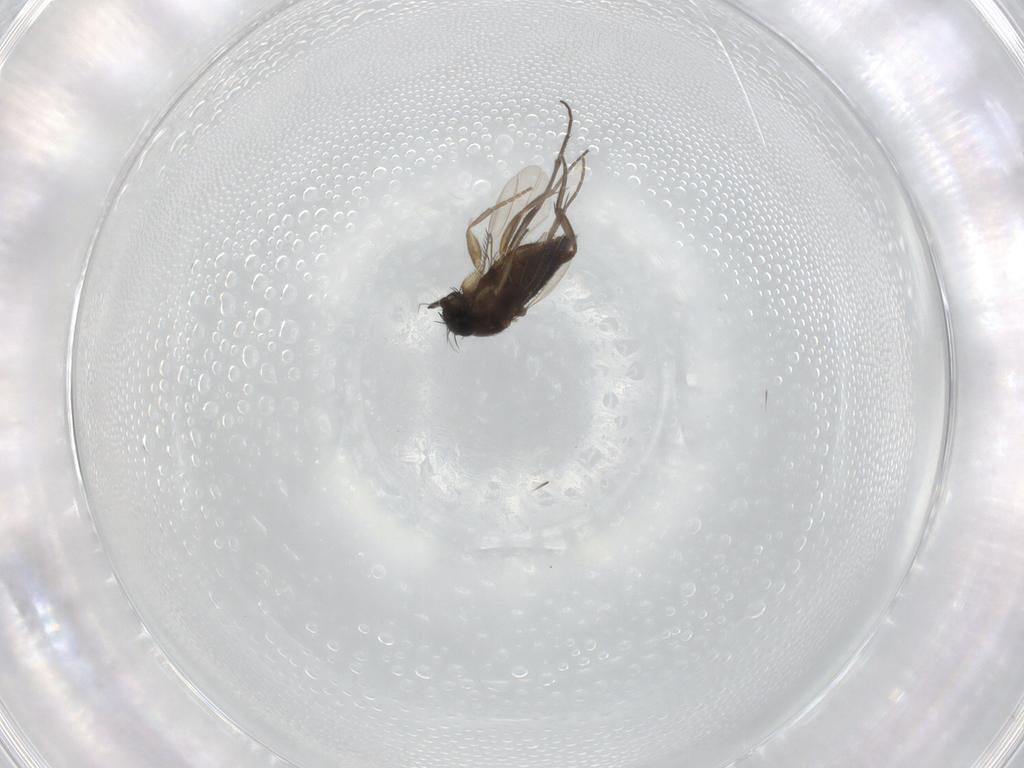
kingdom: Animalia
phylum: Arthropoda
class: Insecta
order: Diptera
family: Phoridae
